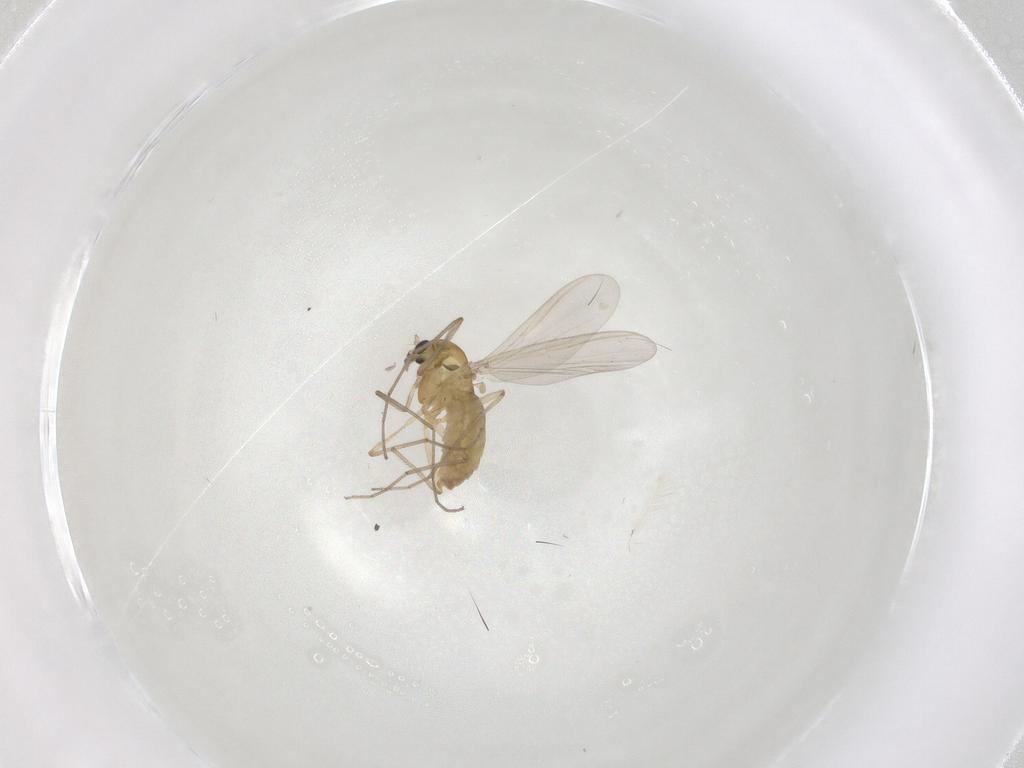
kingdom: Animalia
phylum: Arthropoda
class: Insecta
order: Diptera
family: Chironomidae
